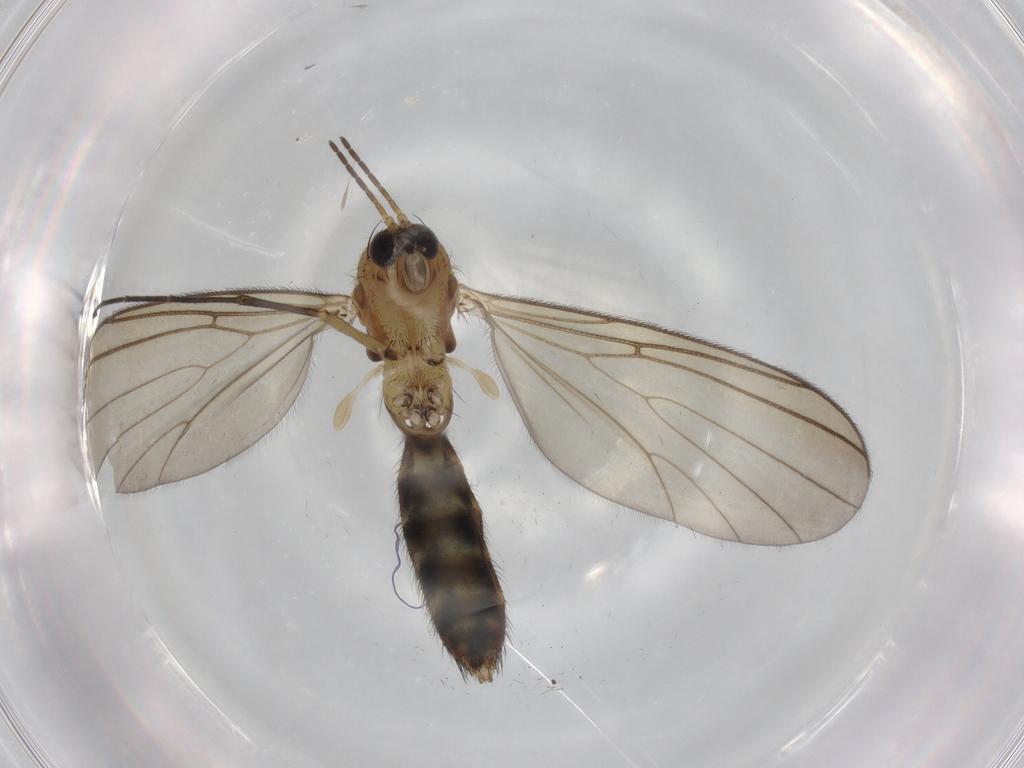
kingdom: Animalia
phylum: Arthropoda
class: Insecta
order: Diptera
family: Mycetophilidae
